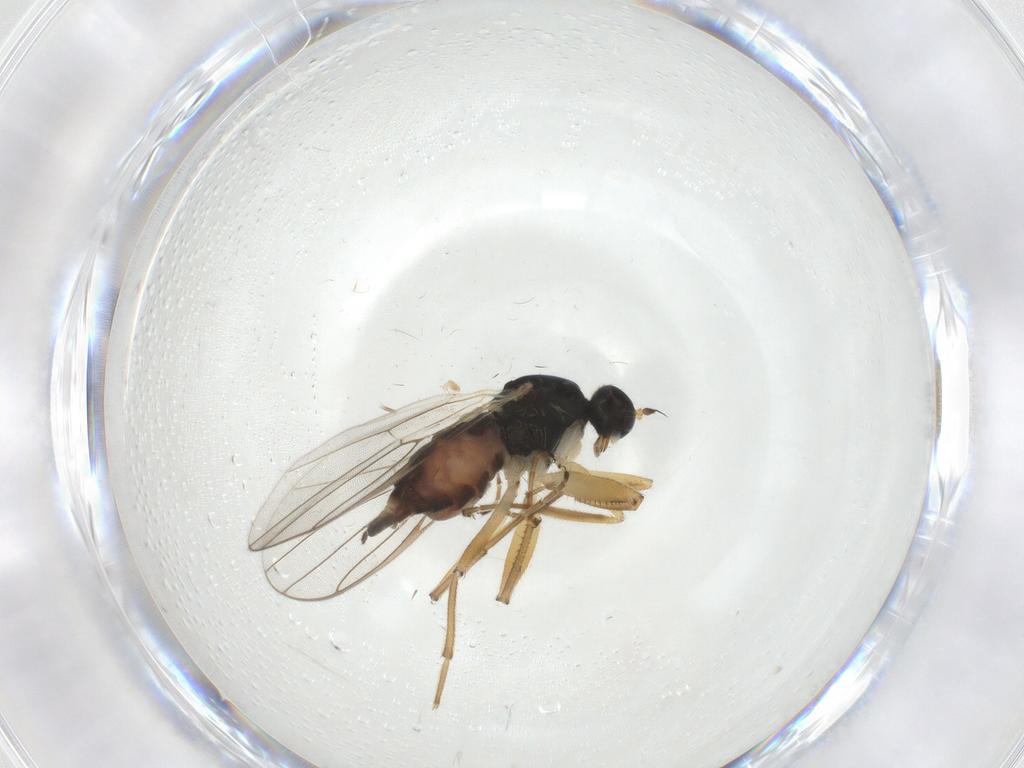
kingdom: Animalia
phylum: Arthropoda
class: Insecta
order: Diptera
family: Hybotidae
